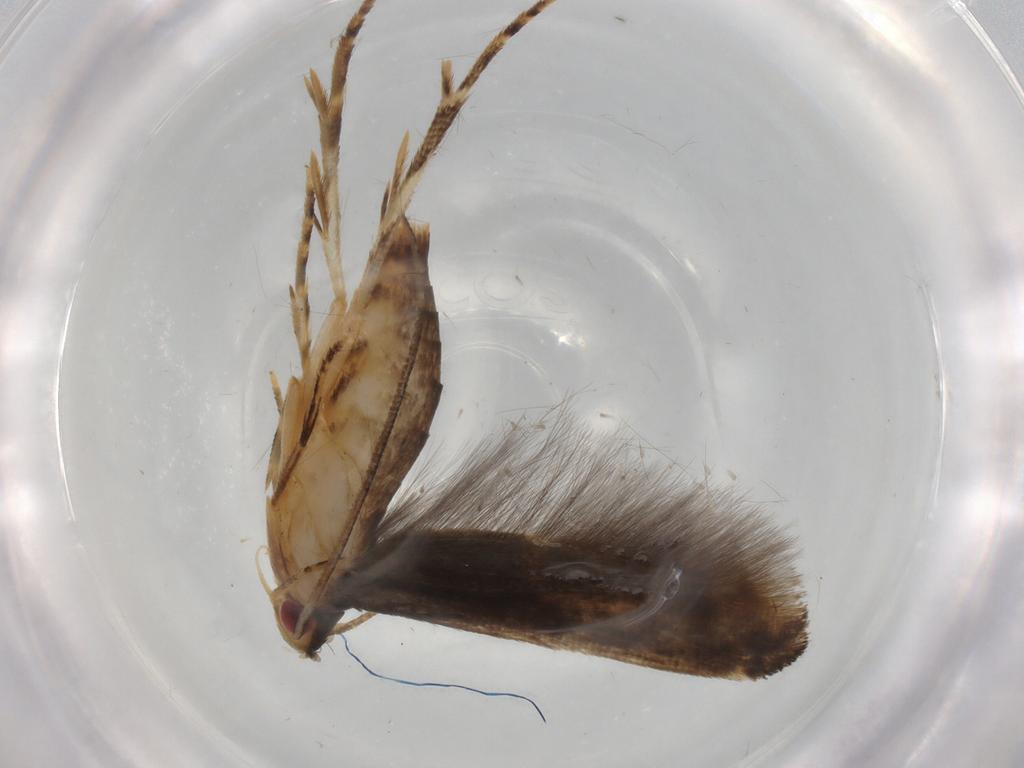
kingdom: Animalia
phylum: Arthropoda
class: Insecta
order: Lepidoptera
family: Momphidae
